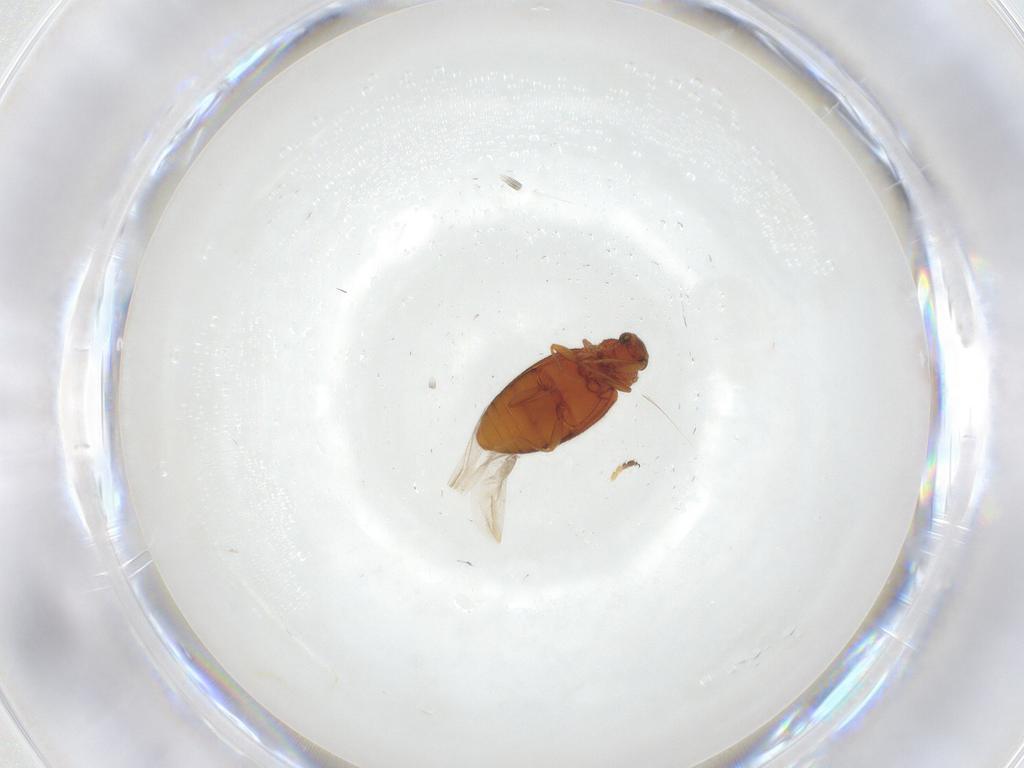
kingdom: Animalia
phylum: Arthropoda
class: Insecta
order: Coleoptera
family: Latridiidae
